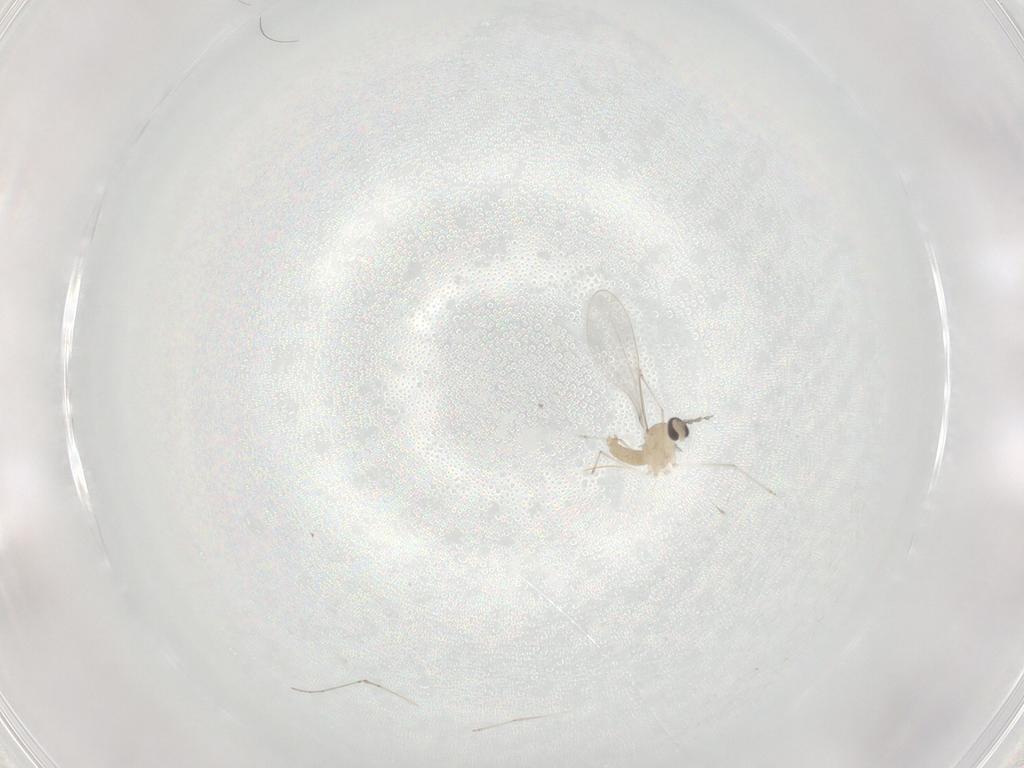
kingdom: Animalia
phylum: Arthropoda
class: Insecta
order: Diptera
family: Cecidomyiidae
